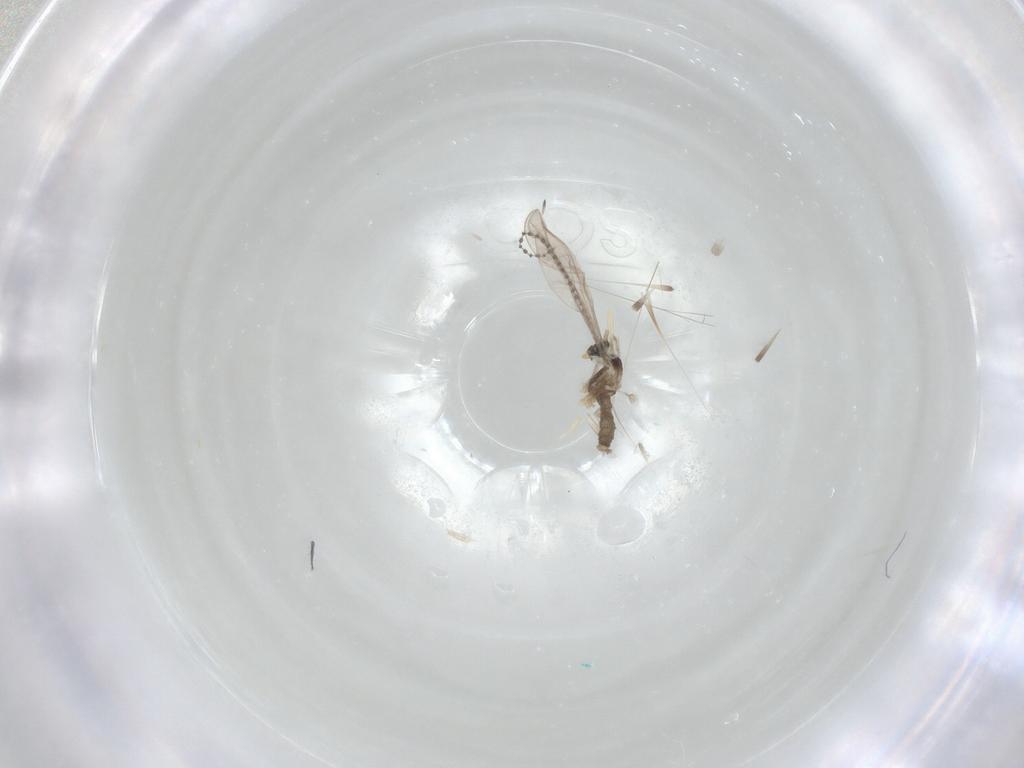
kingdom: Animalia
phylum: Arthropoda
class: Insecta
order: Diptera
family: Cecidomyiidae
